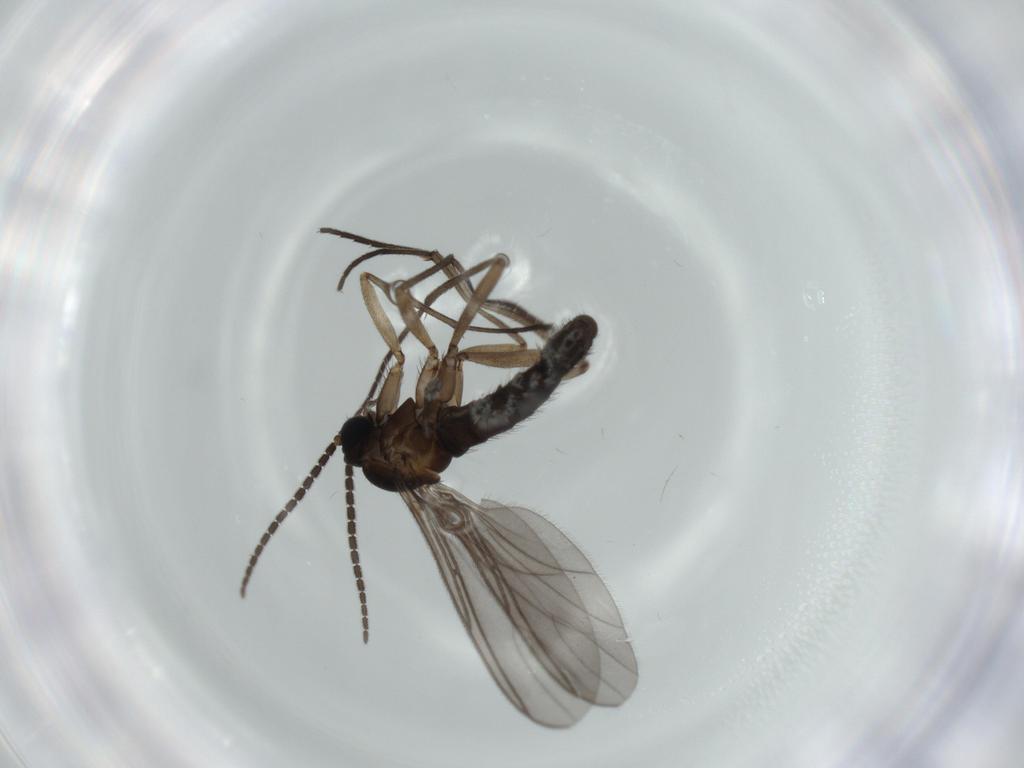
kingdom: Animalia
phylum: Arthropoda
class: Insecta
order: Diptera
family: Sciaridae
